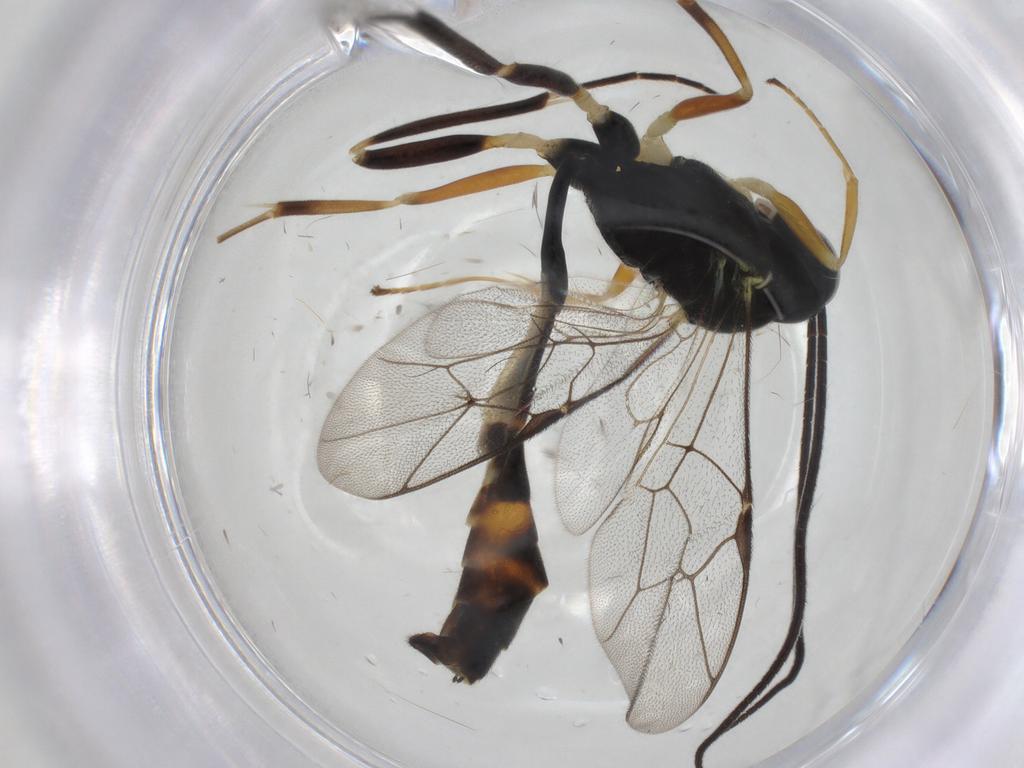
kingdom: Animalia
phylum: Arthropoda
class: Insecta
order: Hymenoptera
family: Ichneumonidae
